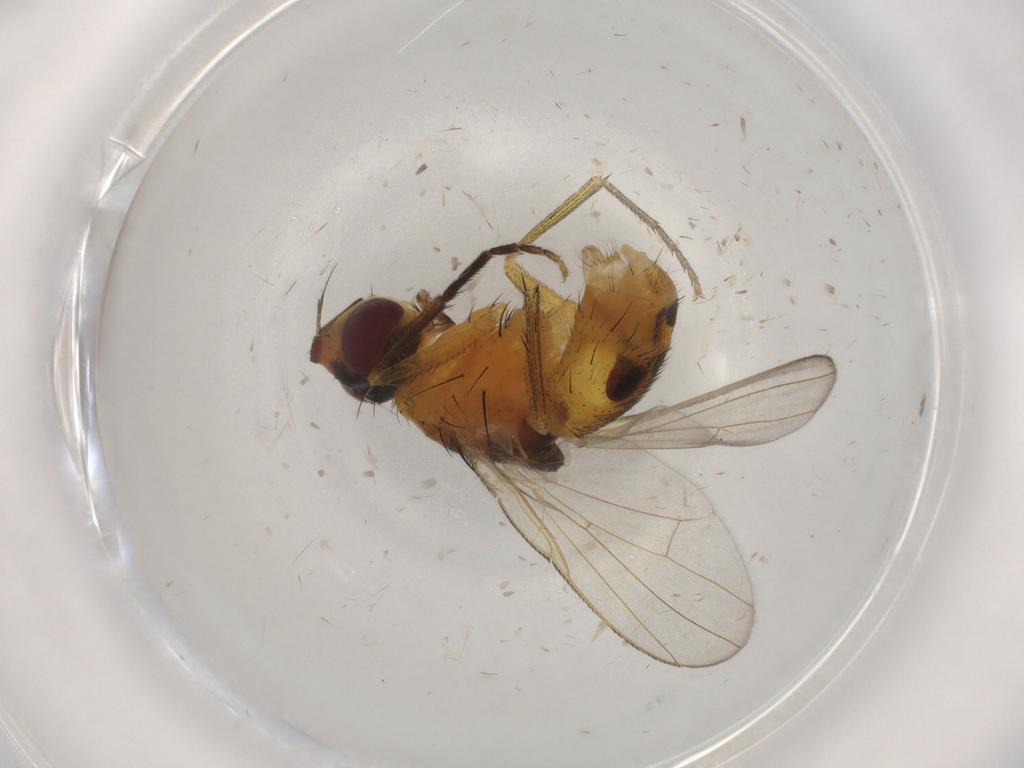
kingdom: Animalia
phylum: Arthropoda
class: Insecta
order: Diptera
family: Muscidae
